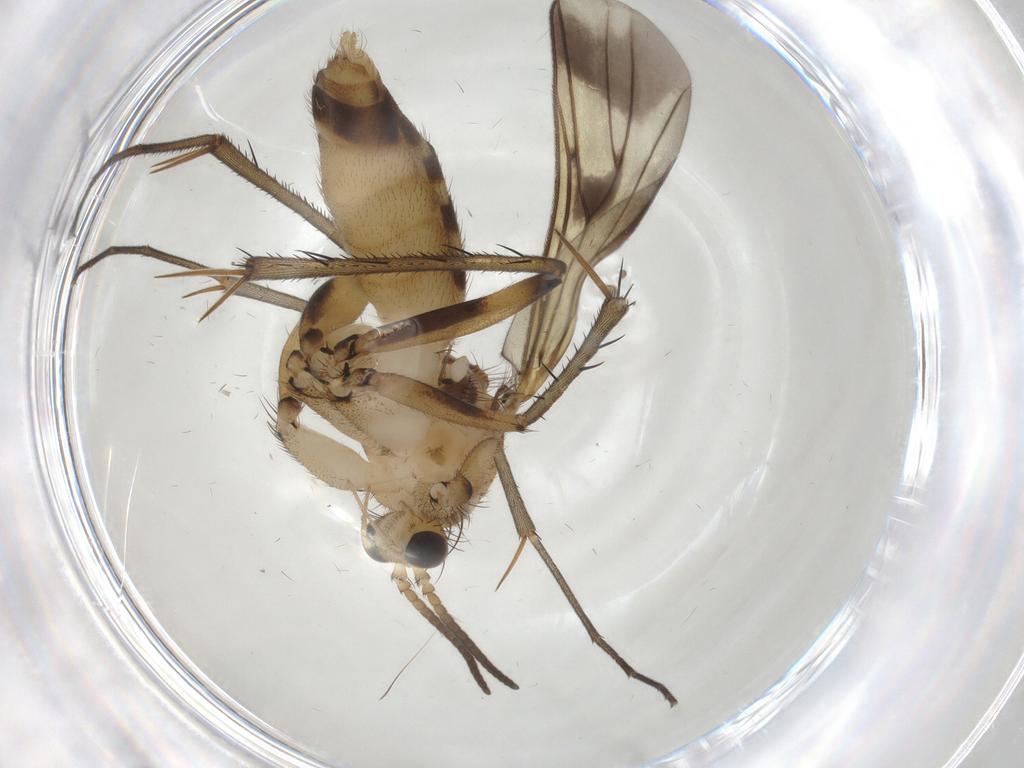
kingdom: Animalia
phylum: Arthropoda
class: Insecta
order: Diptera
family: Mycetophilidae
